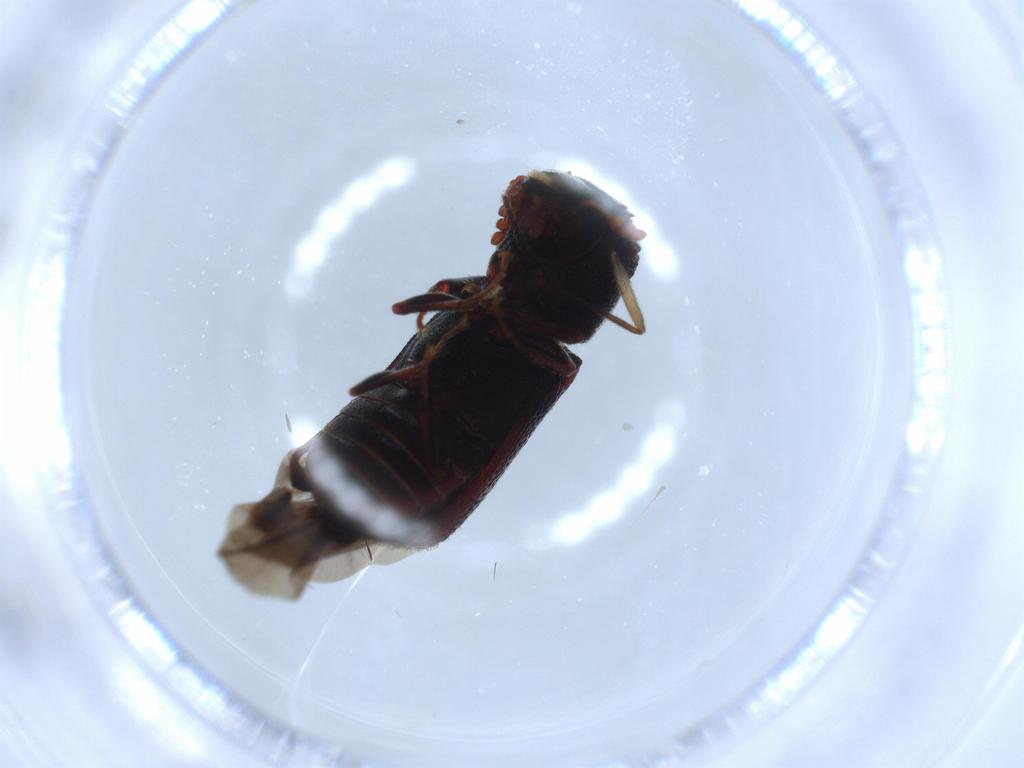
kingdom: Animalia
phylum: Arthropoda
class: Insecta
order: Coleoptera
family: Bostrichidae
